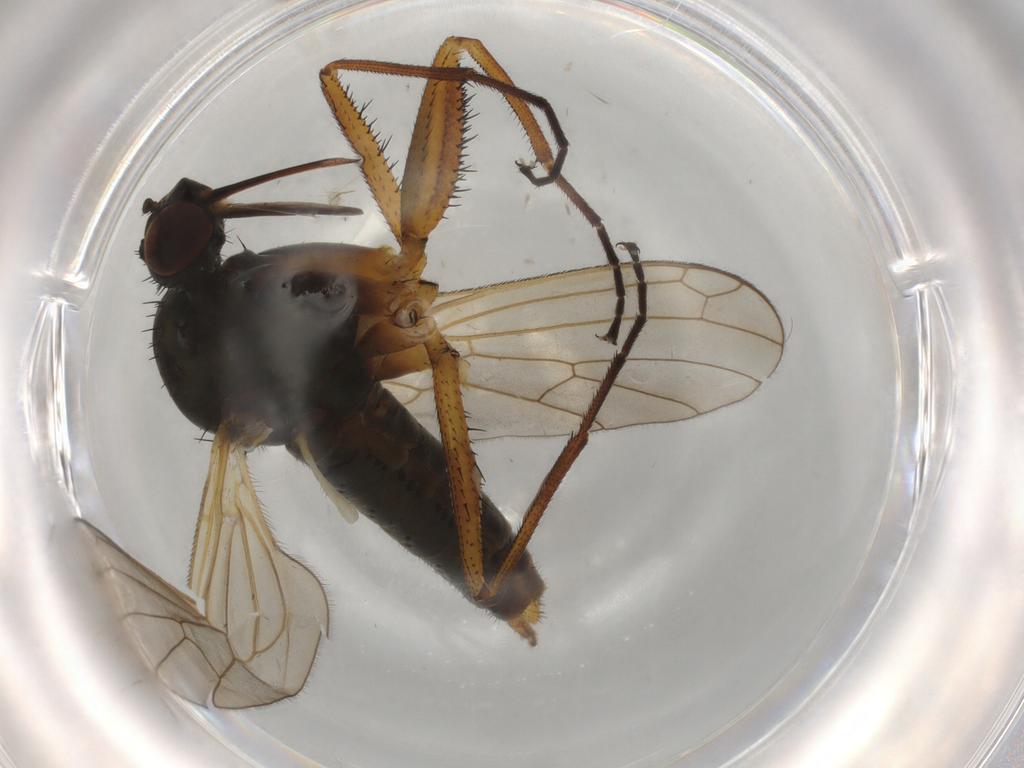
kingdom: Animalia
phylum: Arthropoda
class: Insecta
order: Diptera
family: Empididae
